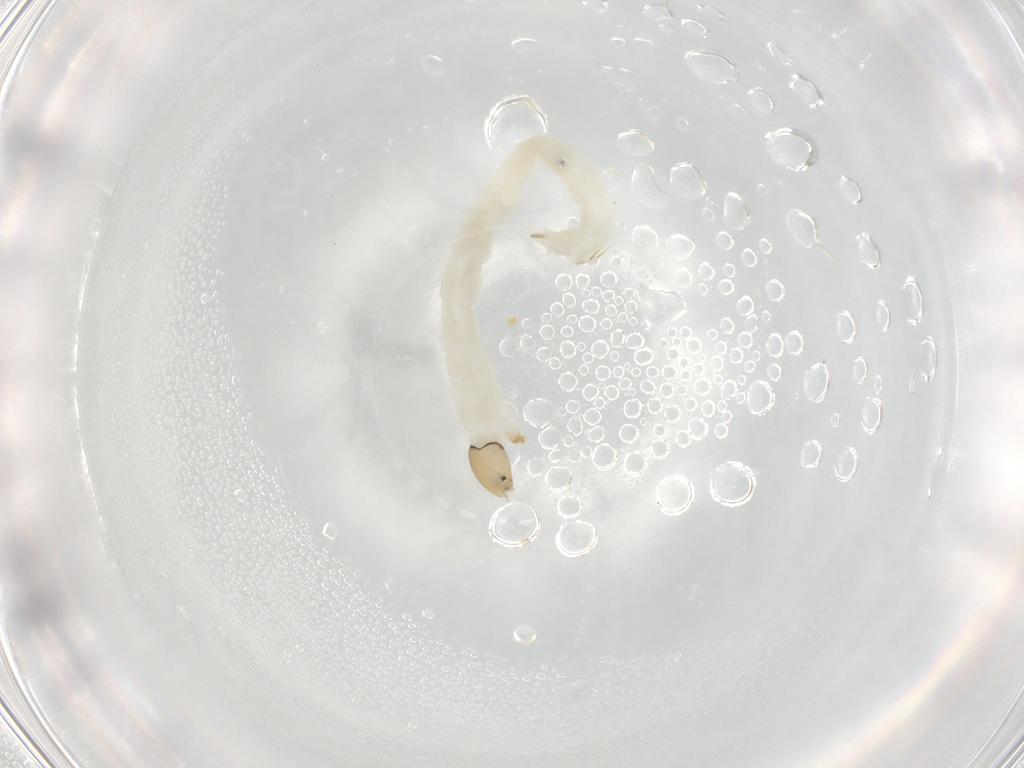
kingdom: Animalia
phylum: Arthropoda
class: Insecta
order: Diptera
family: Chironomidae
